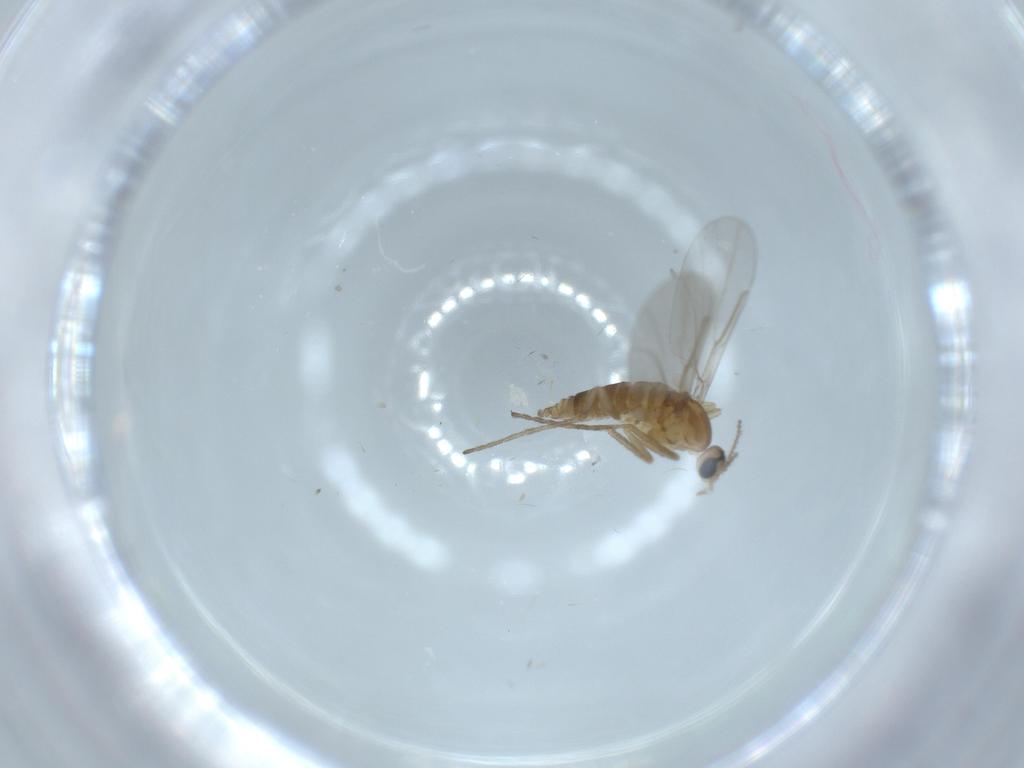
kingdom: Animalia
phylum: Arthropoda
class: Insecta
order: Diptera
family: Cecidomyiidae
